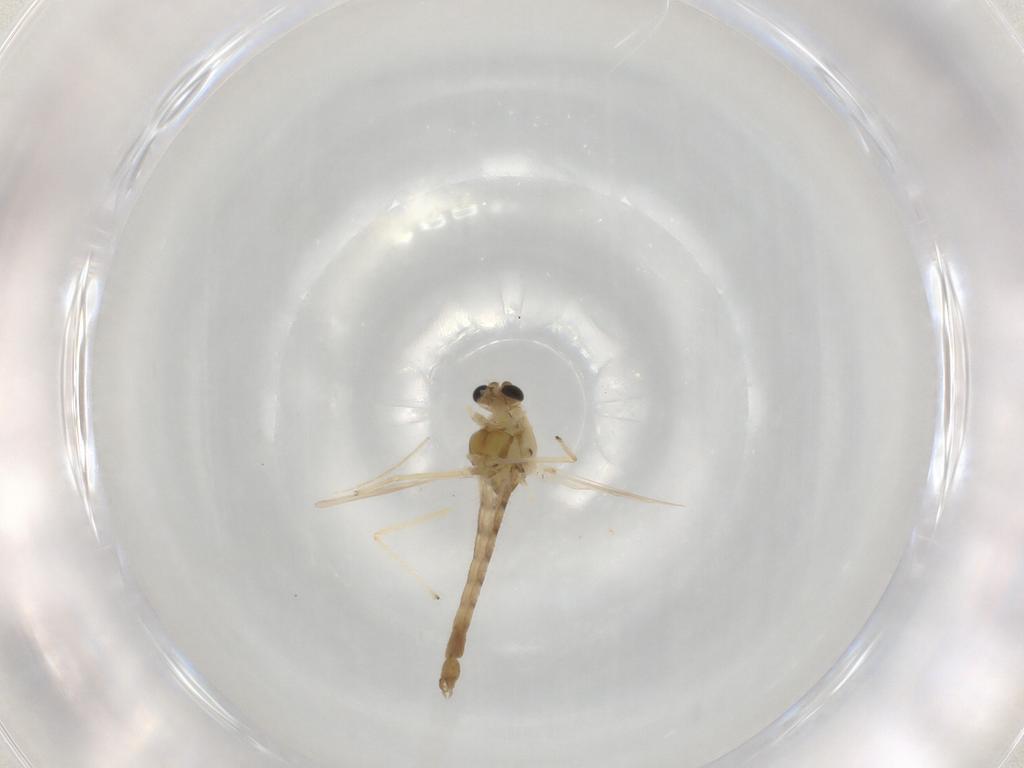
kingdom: Animalia
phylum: Arthropoda
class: Insecta
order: Diptera
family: Chironomidae
